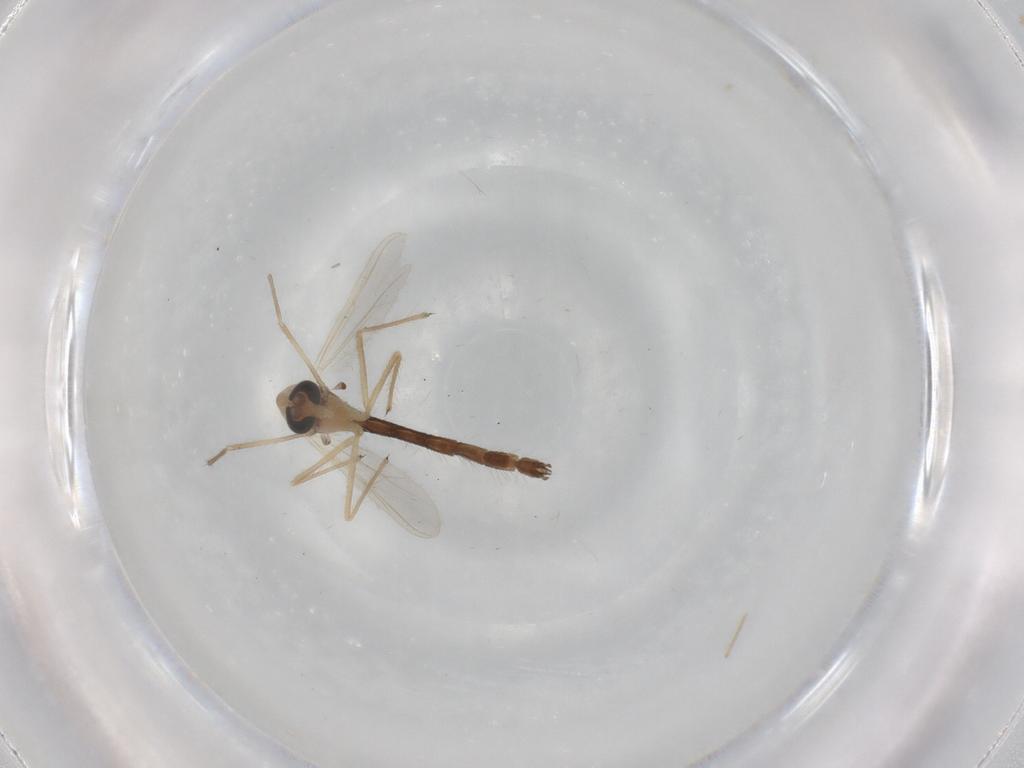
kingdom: Animalia
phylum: Arthropoda
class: Insecta
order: Diptera
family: Chironomidae
